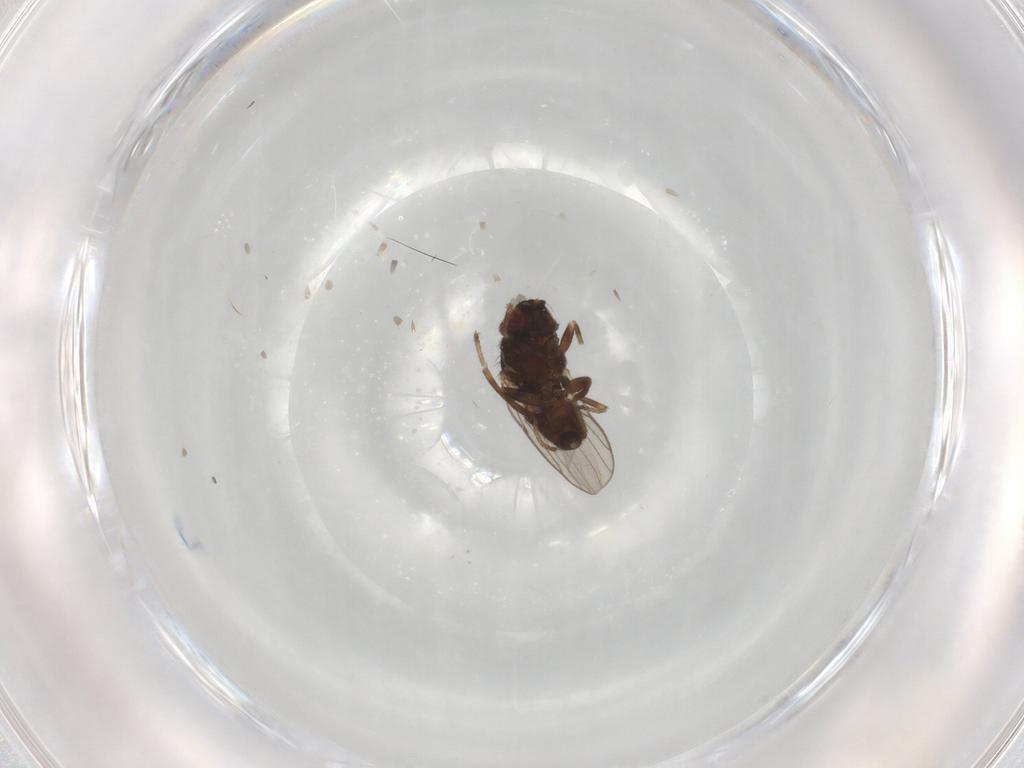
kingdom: Animalia
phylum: Arthropoda
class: Insecta
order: Diptera
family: Chloropidae
